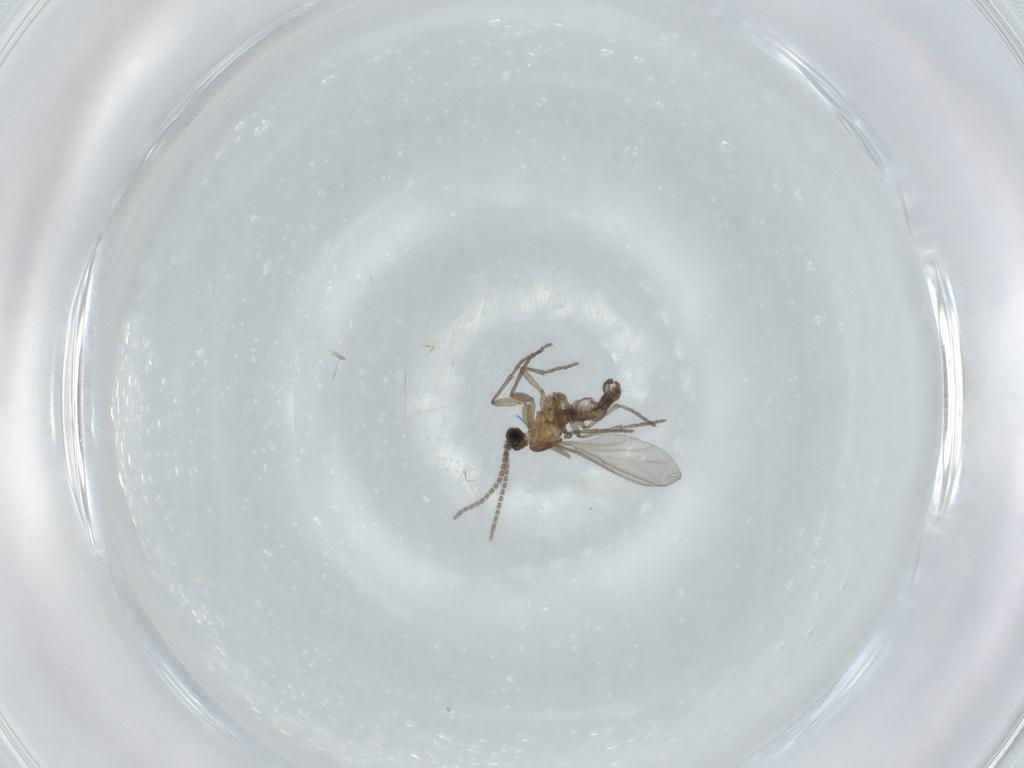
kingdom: Animalia
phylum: Arthropoda
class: Insecta
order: Diptera
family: Sciaridae
